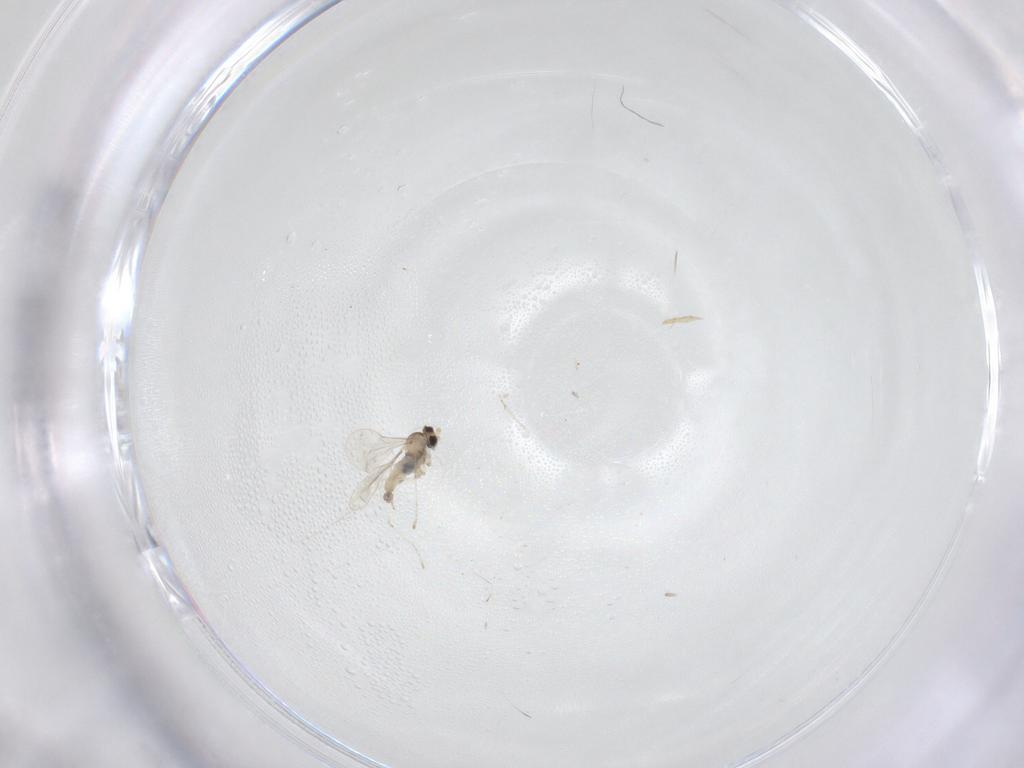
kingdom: Animalia
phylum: Arthropoda
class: Insecta
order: Diptera
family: Cecidomyiidae
